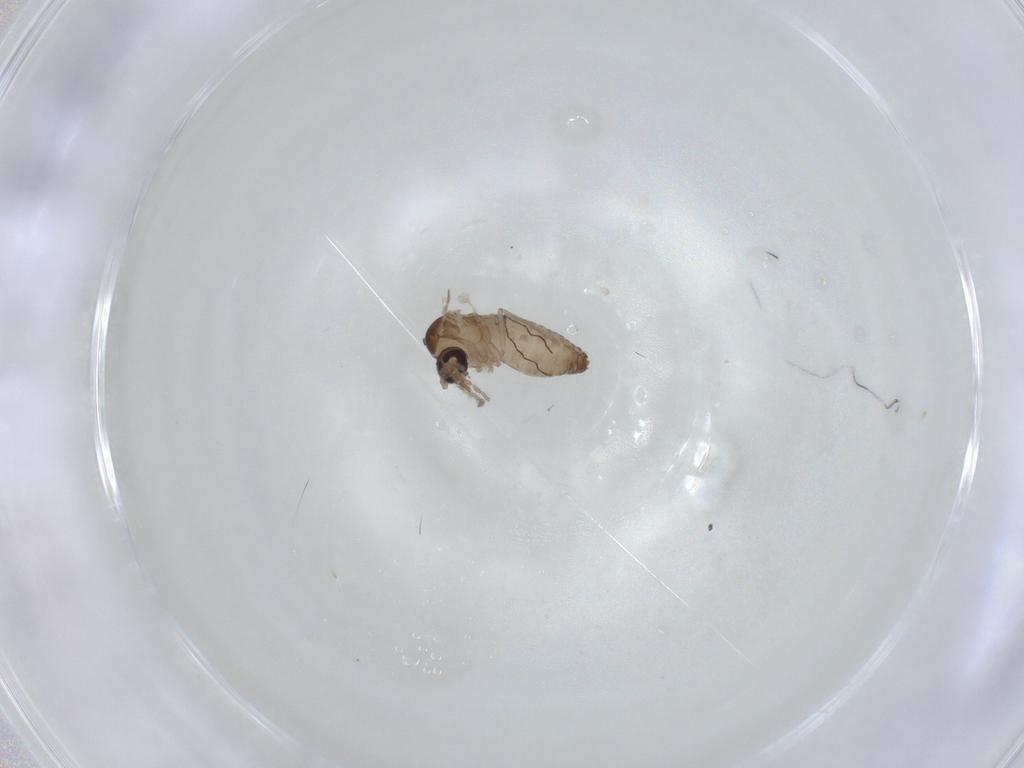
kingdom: Animalia
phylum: Arthropoda
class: Insecta
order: Diptera
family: Psychodidae
